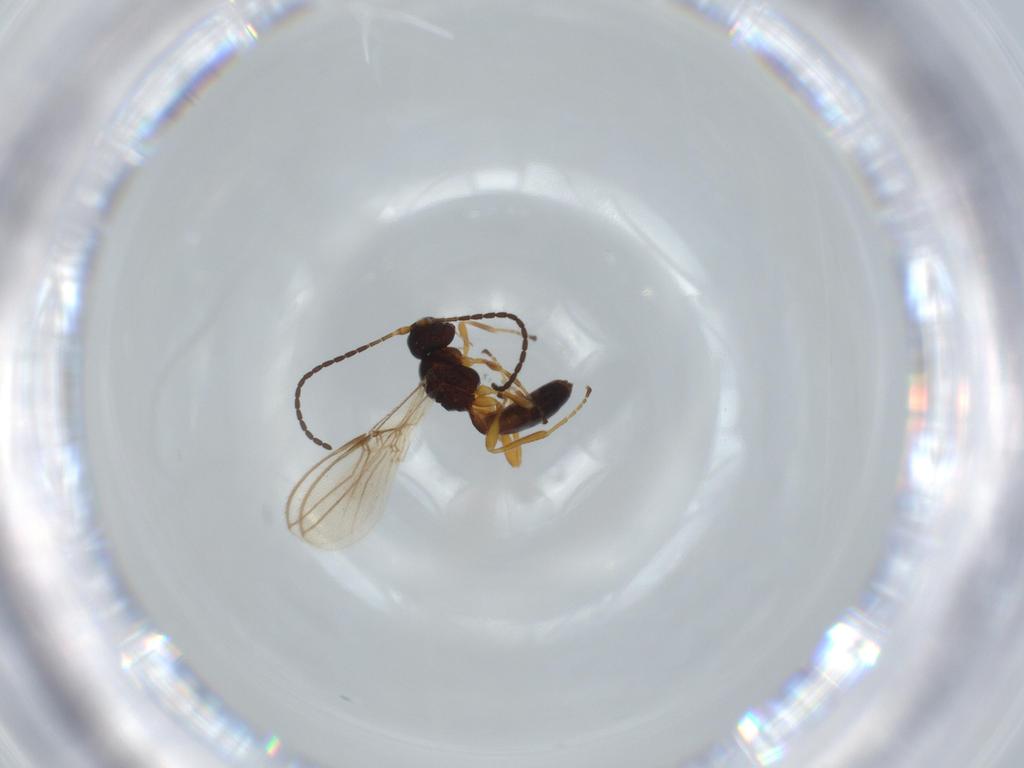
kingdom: Animalia
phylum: Arthropoda
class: Insecta
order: Hymenoptera
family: Braconidae
